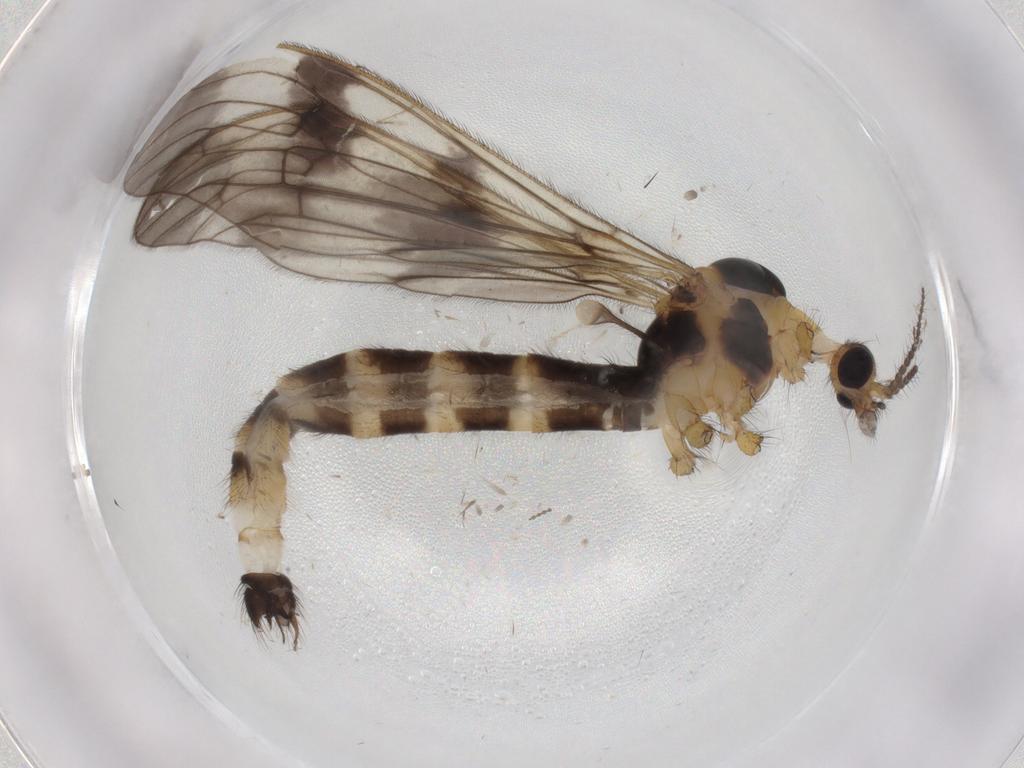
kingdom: Animalia
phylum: Arthropoda
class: Insecta
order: Diptera
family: Limoniidae
